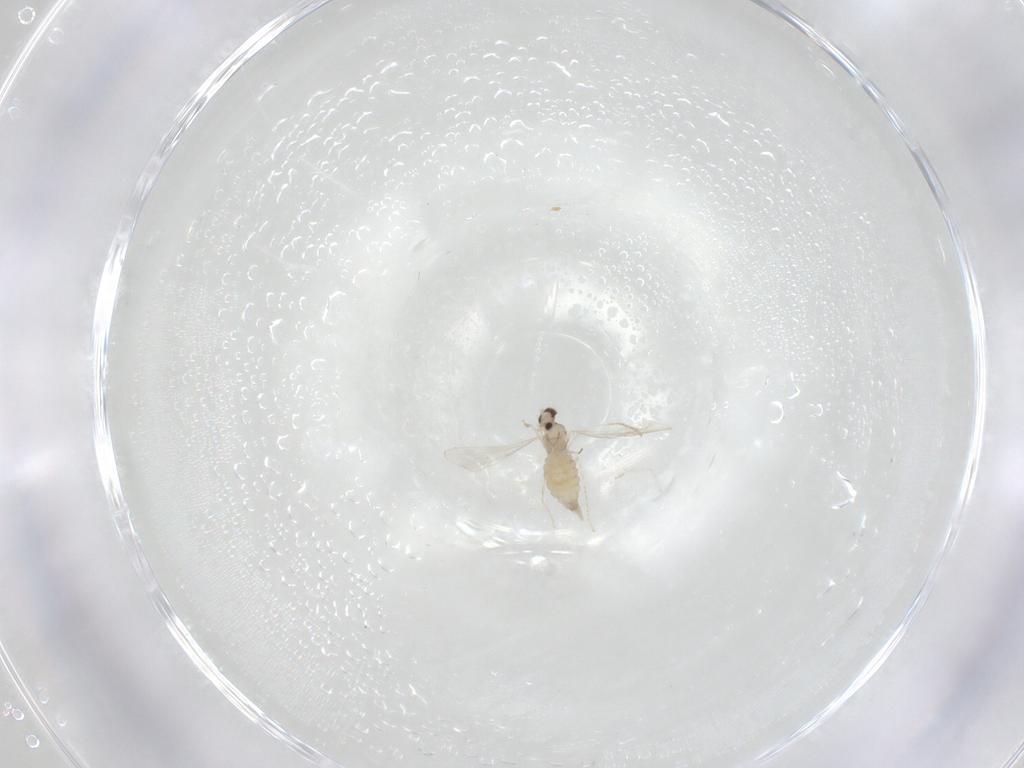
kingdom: Animalia
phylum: Arthropoda
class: Insecta
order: Diptera
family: Cecidomyiidae
